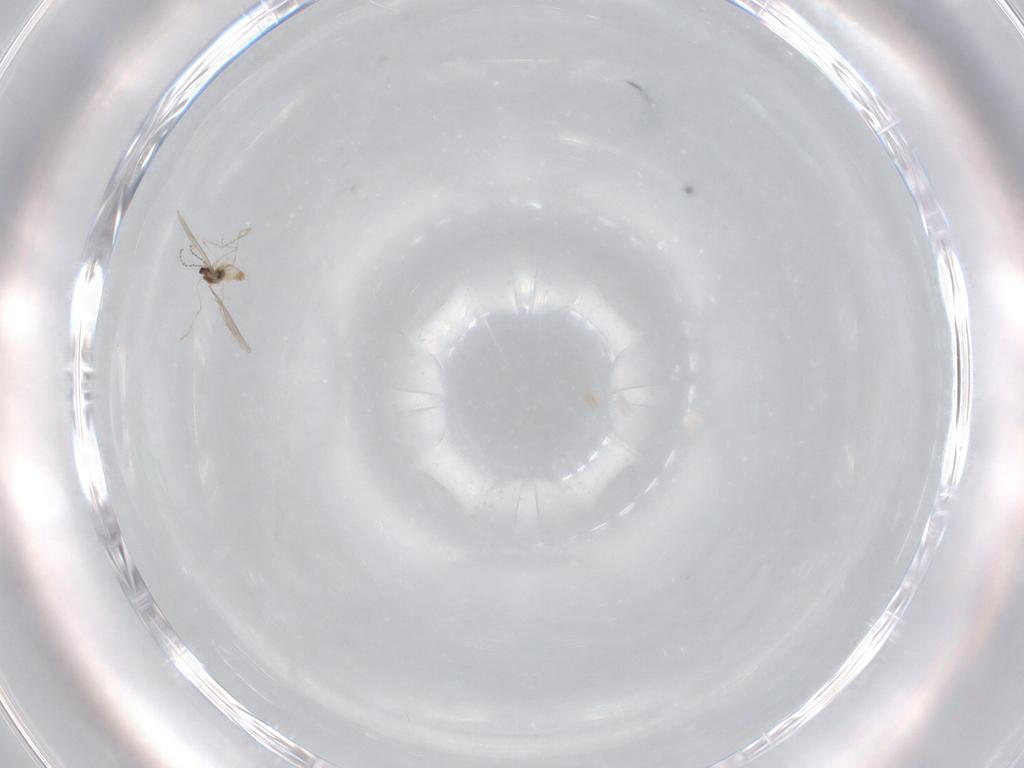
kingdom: Animalia
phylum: Arthropoda
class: Insecta
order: Diptera
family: Cecidomyiidae
